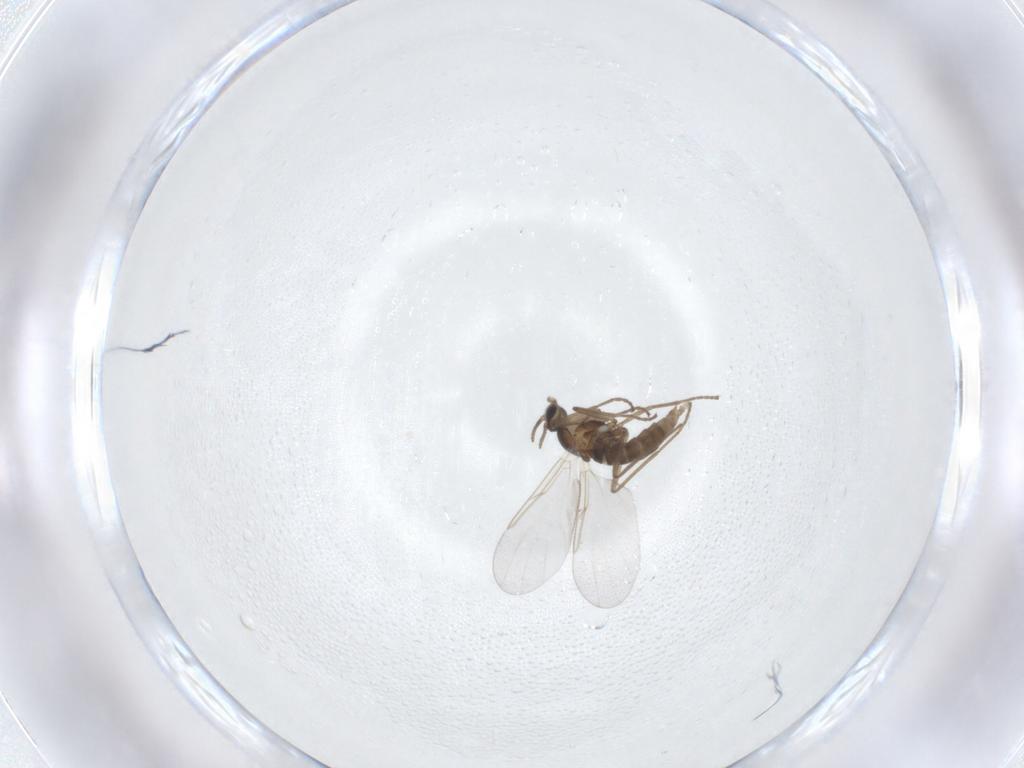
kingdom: Animalia
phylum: Arthropoda
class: Insecta
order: Diptera
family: Cecidomyiidae
